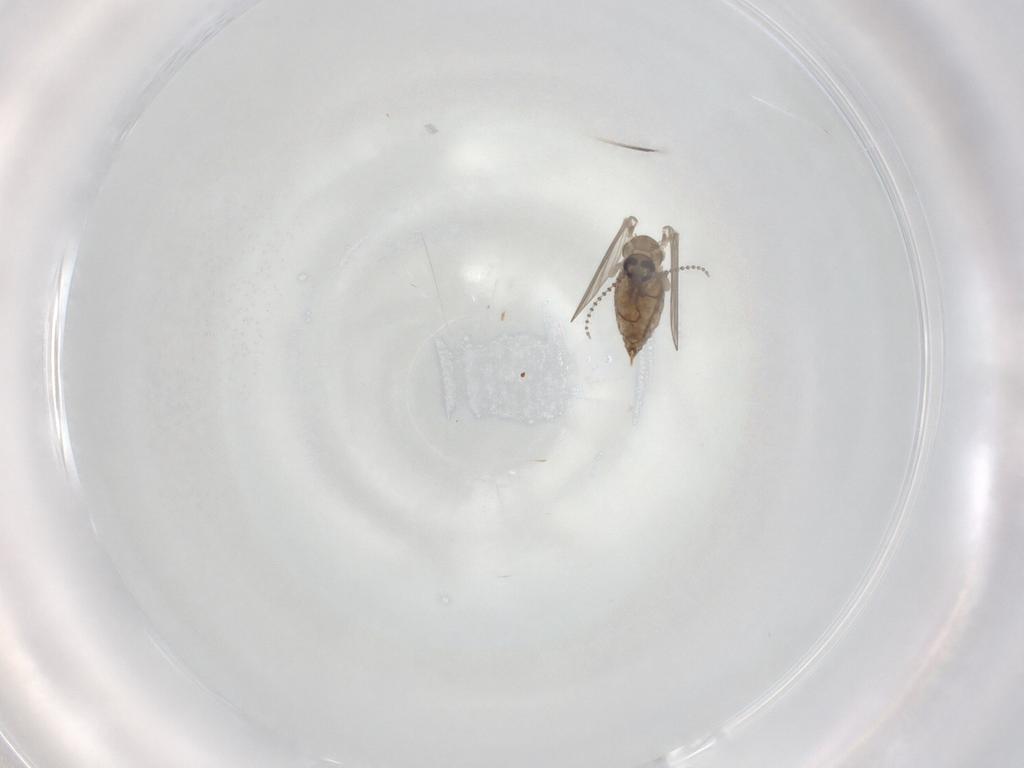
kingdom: Animalia
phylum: Arthropoda
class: Insecta
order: Diptera
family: Psychodidae
